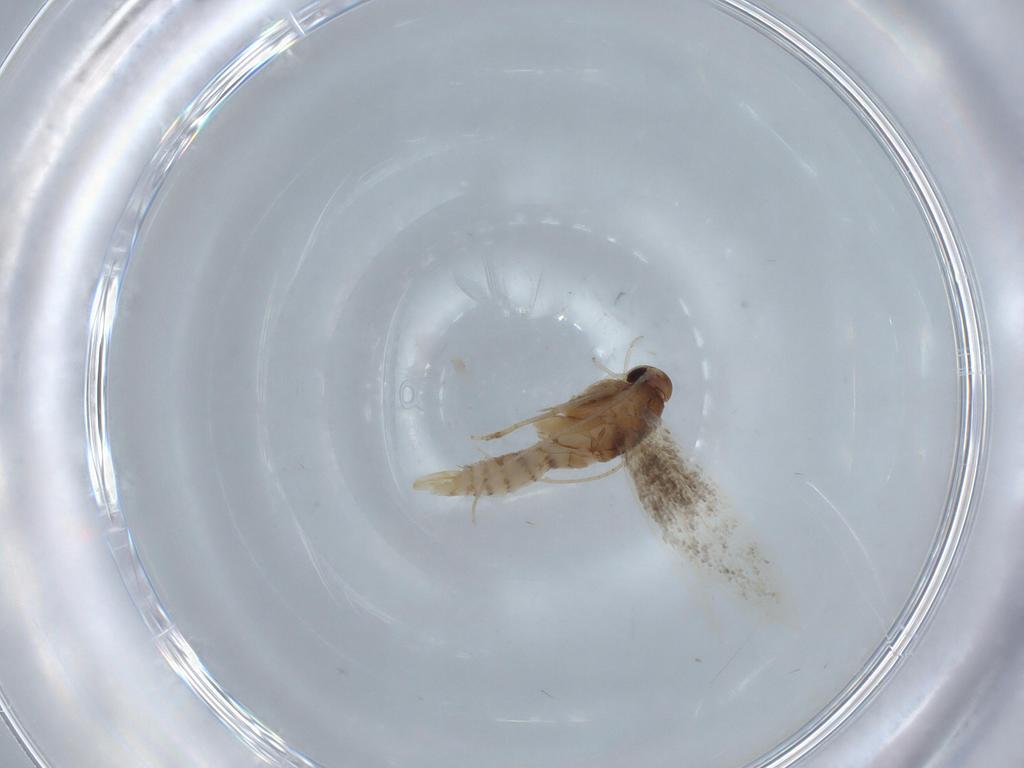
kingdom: Animalia
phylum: Arthropoda
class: Insecta
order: Lepidoptera
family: Elachistidae
